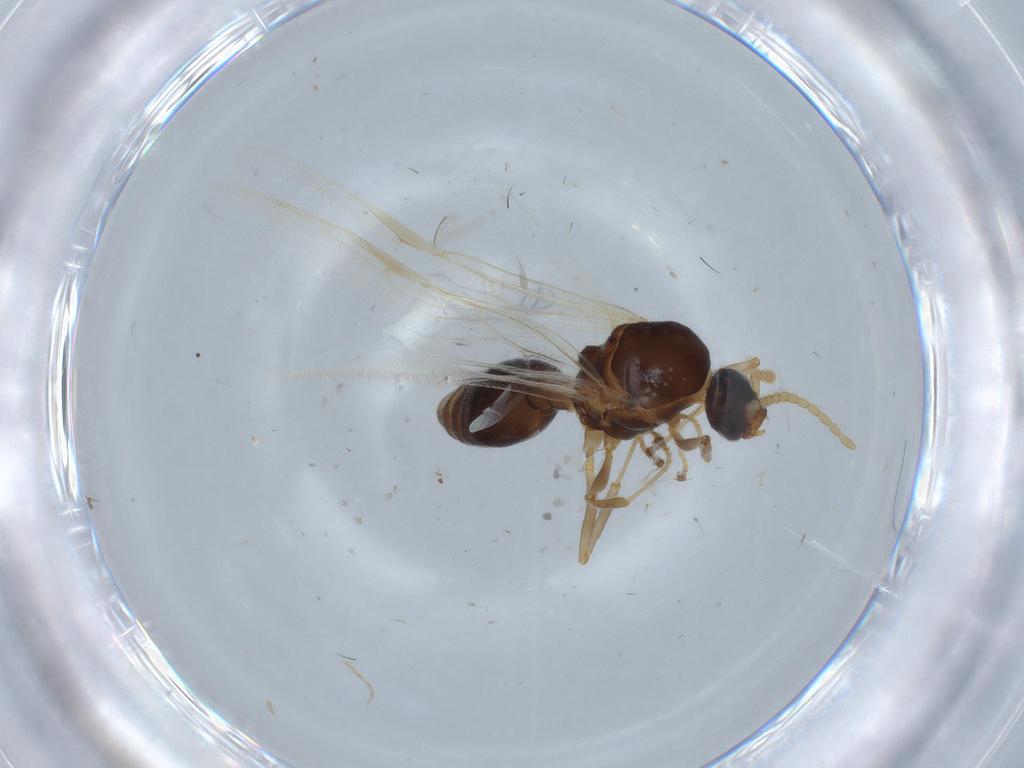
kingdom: Animalia
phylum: Arthropoda
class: Insecta
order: Hymenoptera
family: Formicidae
